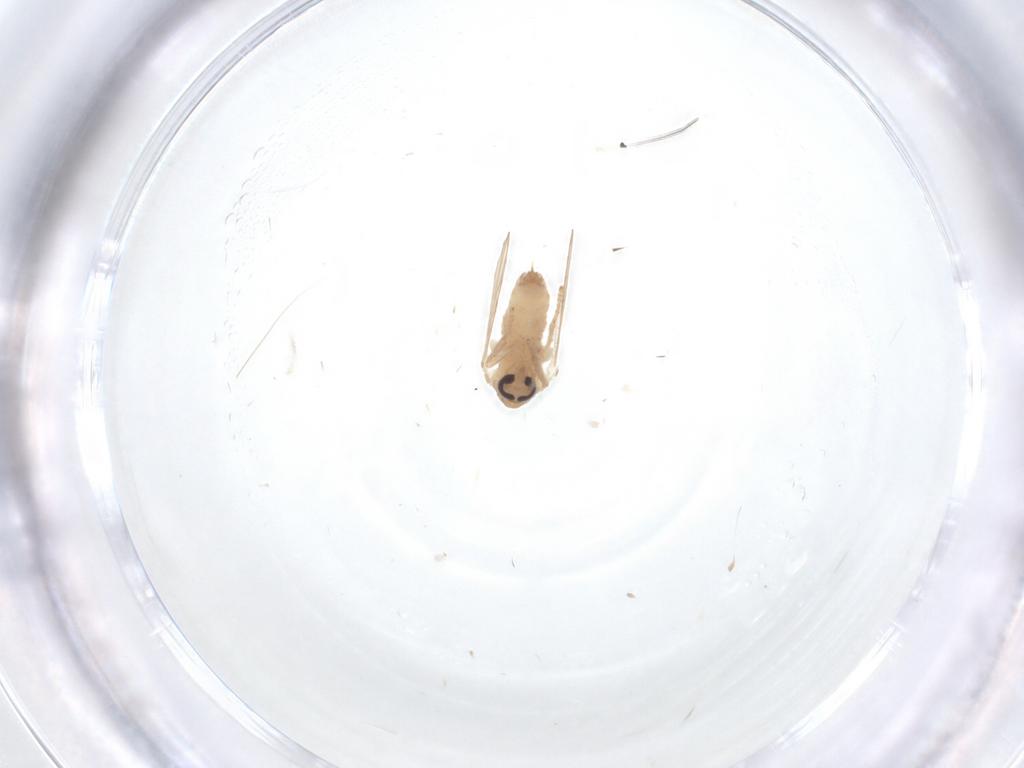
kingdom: Animalia
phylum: Arthropoda
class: Insecta
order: Diptera
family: Psychodidae
